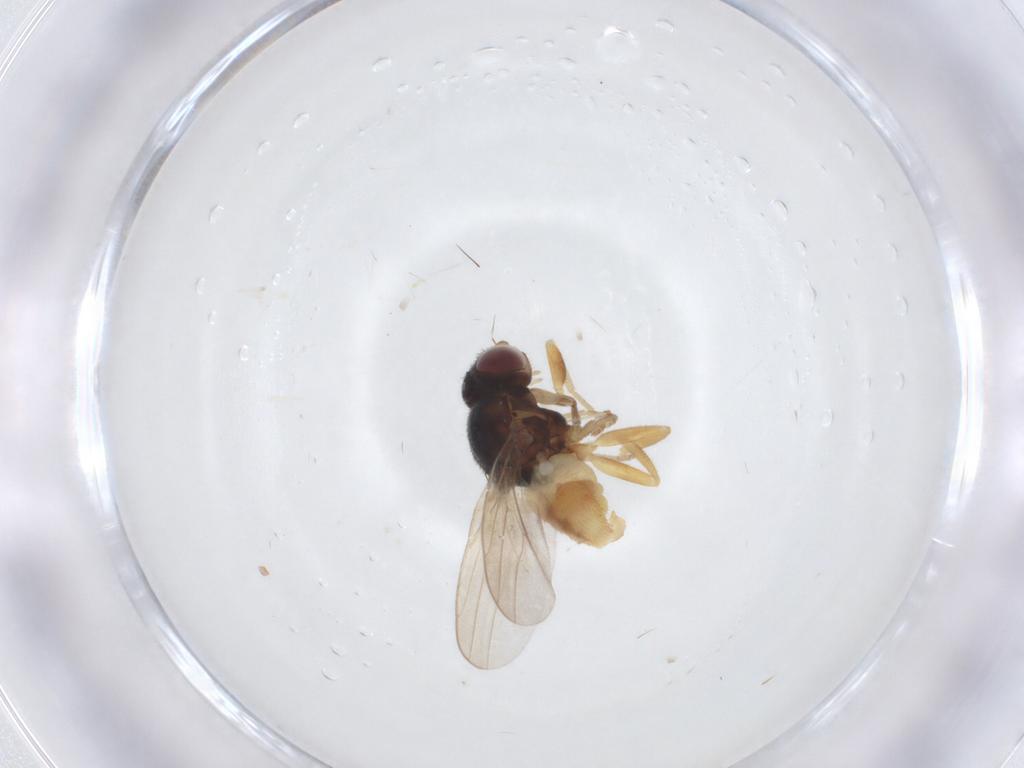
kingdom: Animalia
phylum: Arthropoda
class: Insecta
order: Diptera
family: Chloropidae
